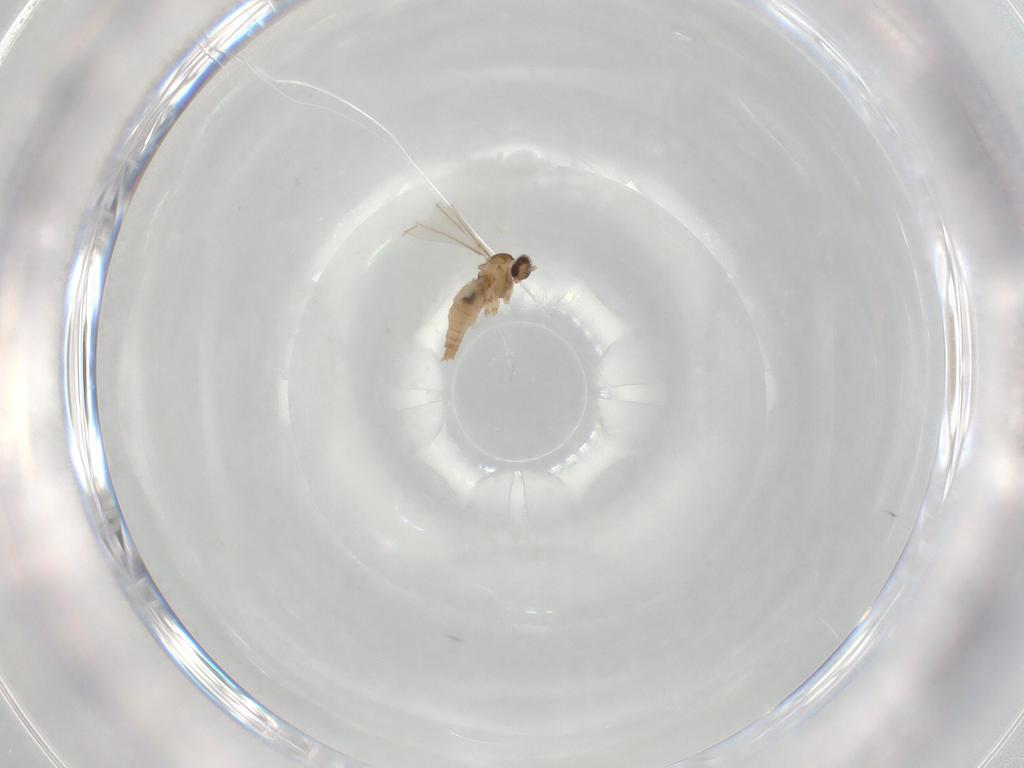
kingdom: Animalia
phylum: Arthropoda
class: Insecta
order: Diptera
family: Cecidomyiidae
